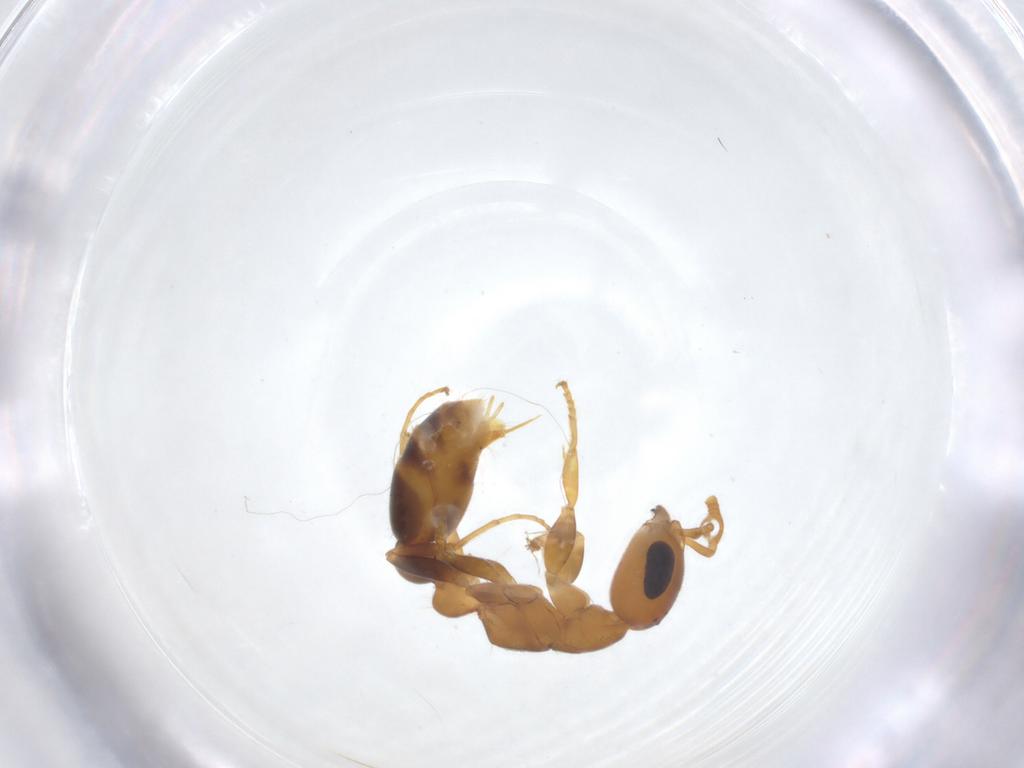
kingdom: Animalia
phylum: Arthropoda
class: Insecta
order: Hymenoptera
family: Formicidae
